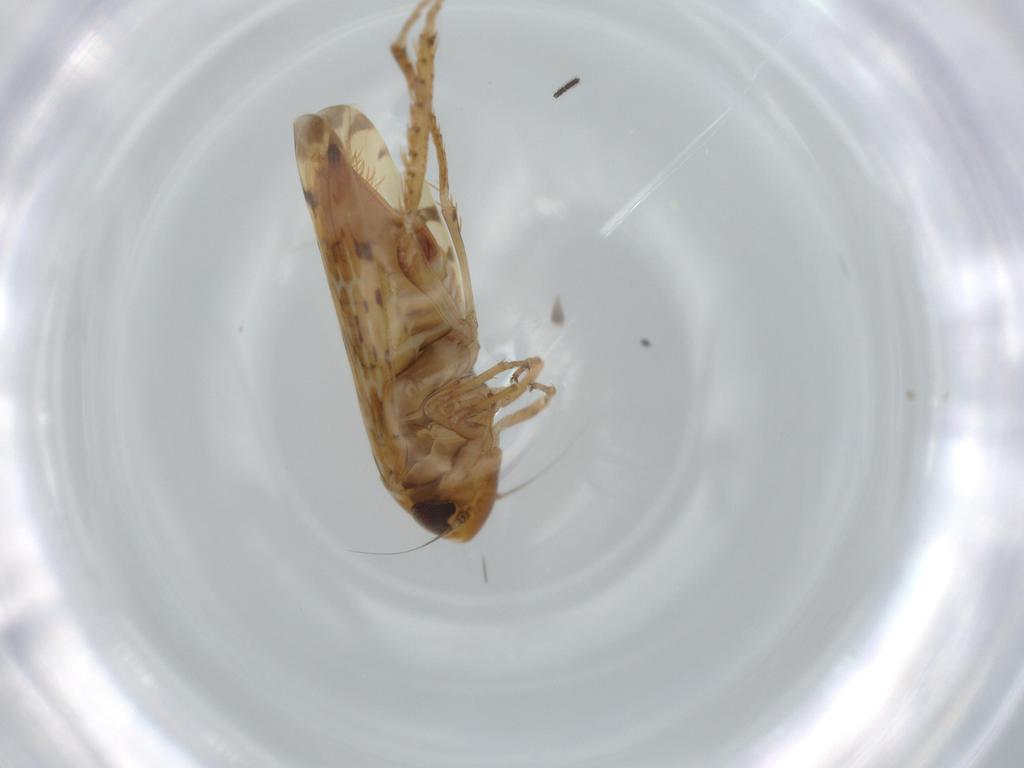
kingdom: Animalia
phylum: Arthropoda
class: Insecta
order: Hemiptera
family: Cicadellidae
